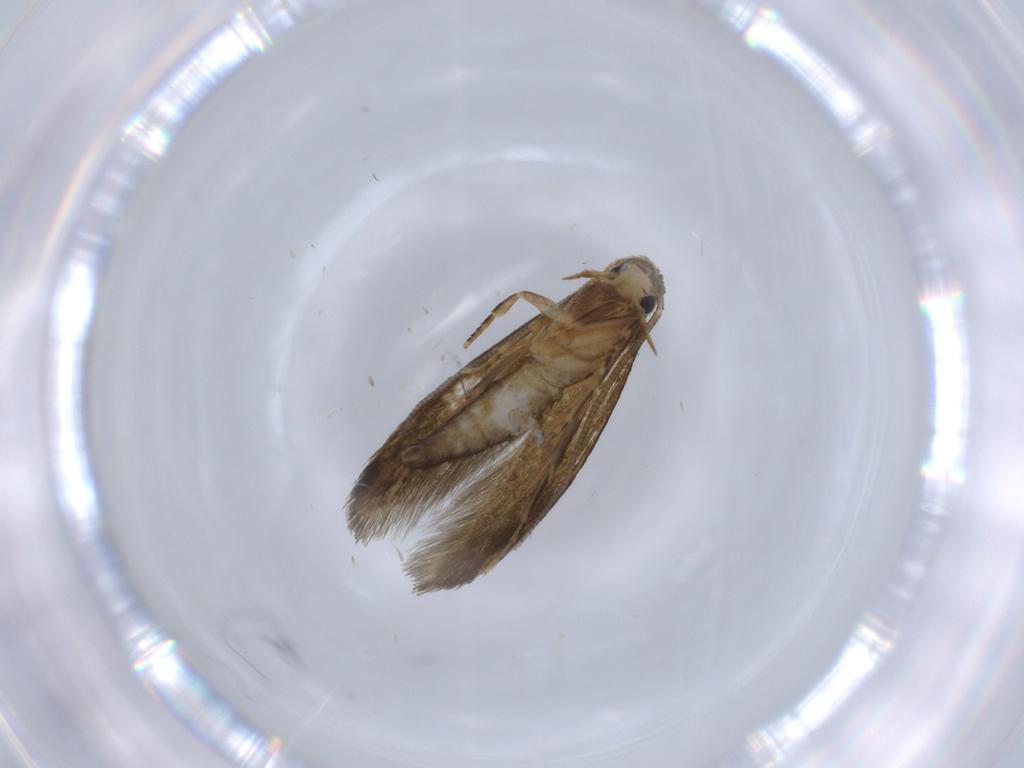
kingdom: Animalia
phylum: Arthropoda
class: Insecta
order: Lepidoptera
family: Tineidae
